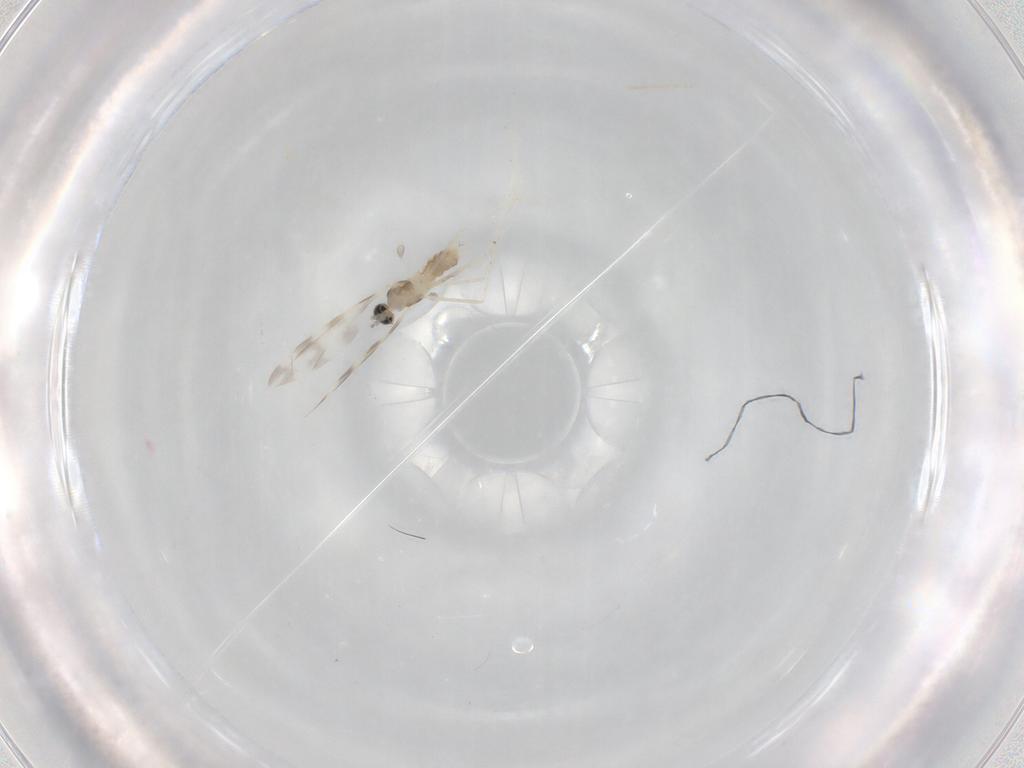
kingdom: Animalia
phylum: Arthropoda
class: Insecta
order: Diptera
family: Cecidomyiidae
